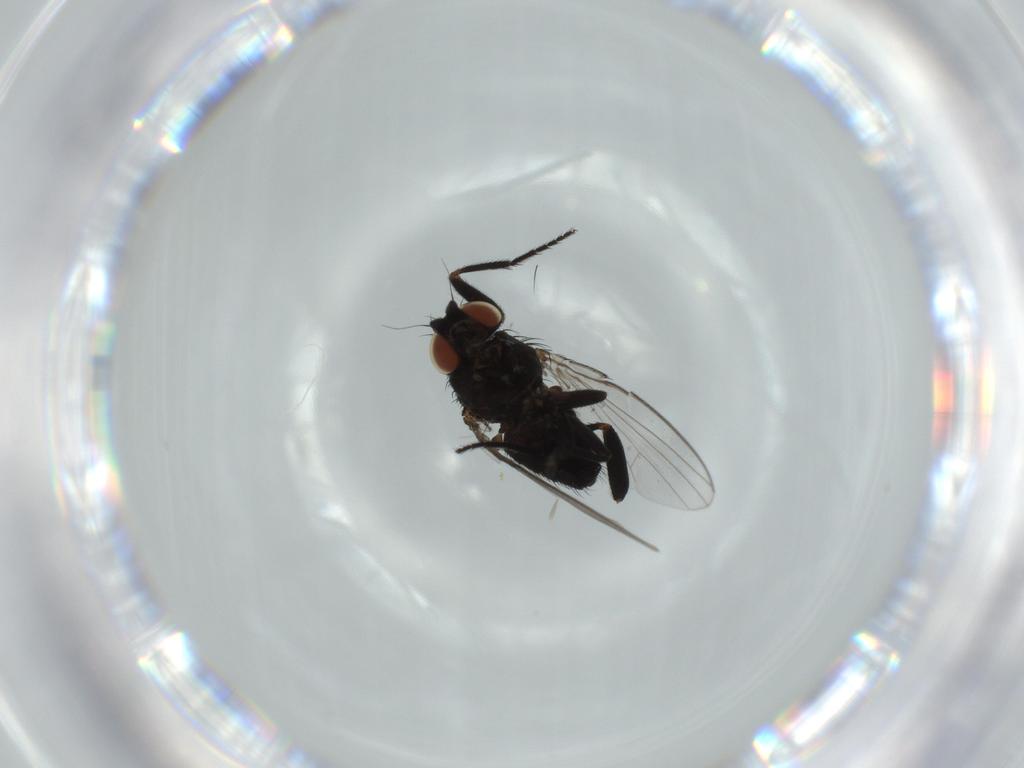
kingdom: Animalia
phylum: Arthropoda
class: Insecta
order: Diptera
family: Milichiidae
